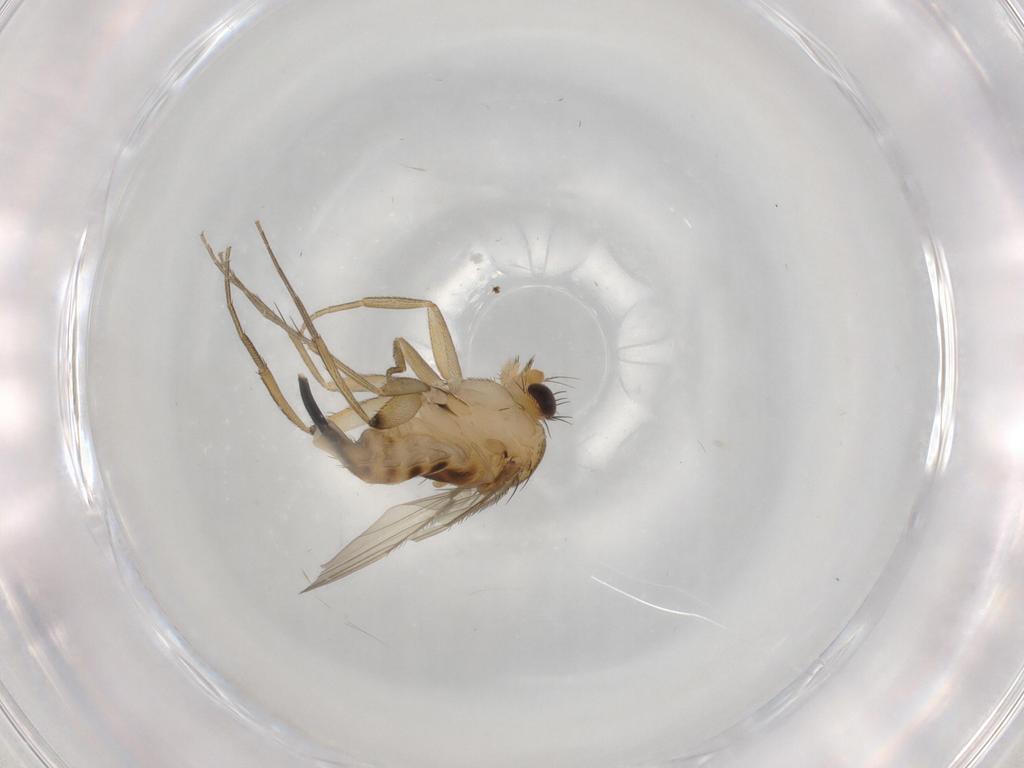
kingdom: Animalia
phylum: Arthropoda
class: Insecta
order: Diptera
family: Phoridae
